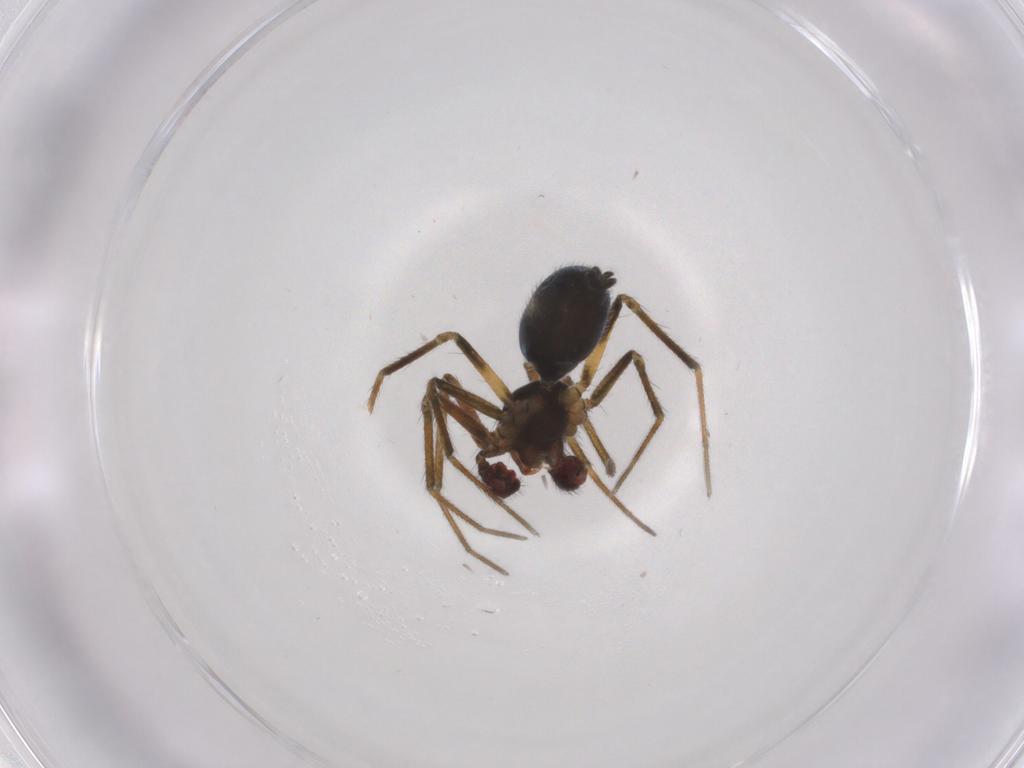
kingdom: Animalia
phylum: Arthropoda
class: Arachnida
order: Araneae
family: Linyphiidae
